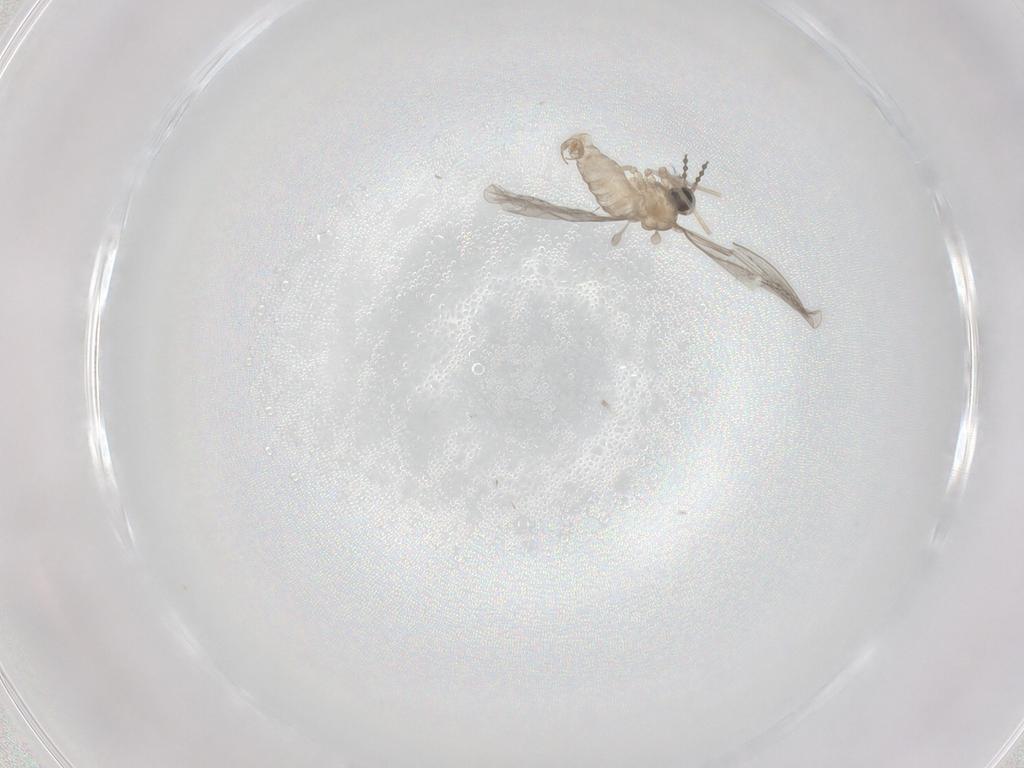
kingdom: Animalia
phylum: Arthropoda
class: Insecta
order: Diptera
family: Cecidomyiidae
